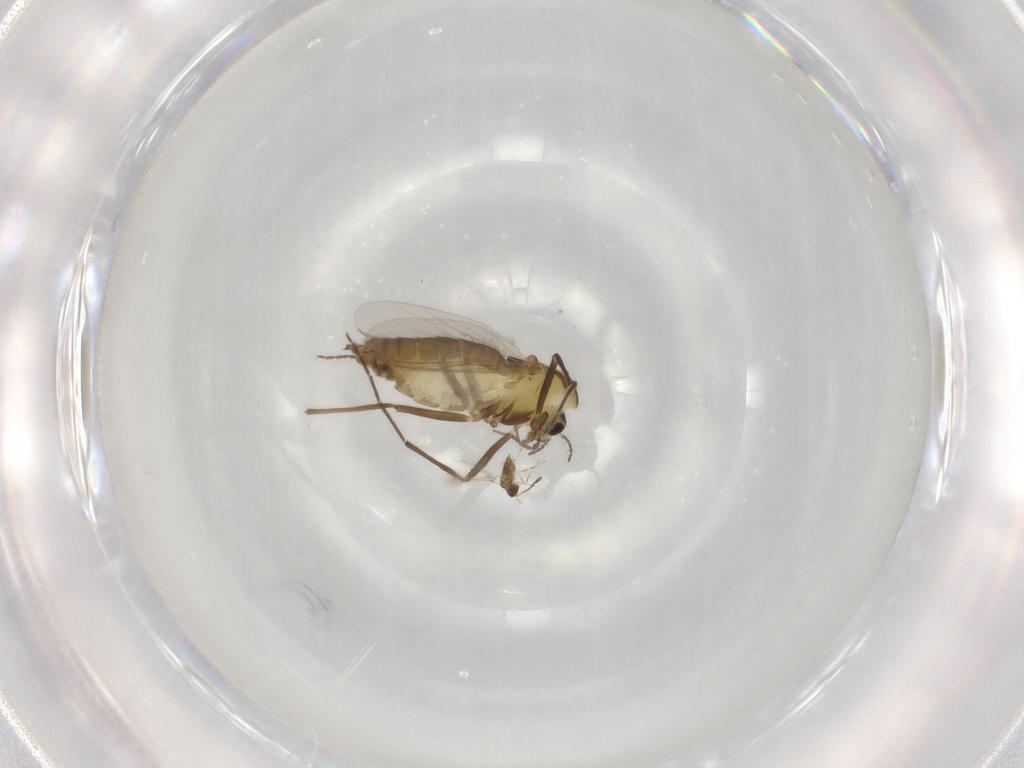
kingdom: Animalia
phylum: Arthropoda
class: Insecta
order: Diptera
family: Chironomidae
